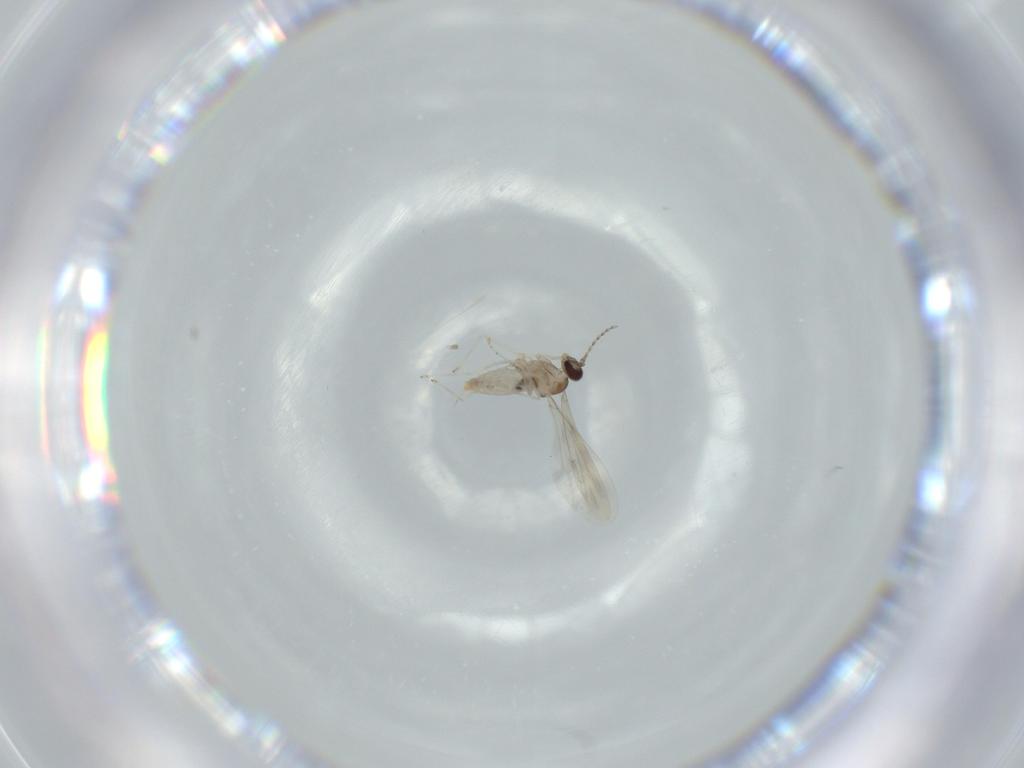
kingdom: Animalia
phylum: Arthropoda
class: Insecta
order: Diptera
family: Cecidomyiidae
